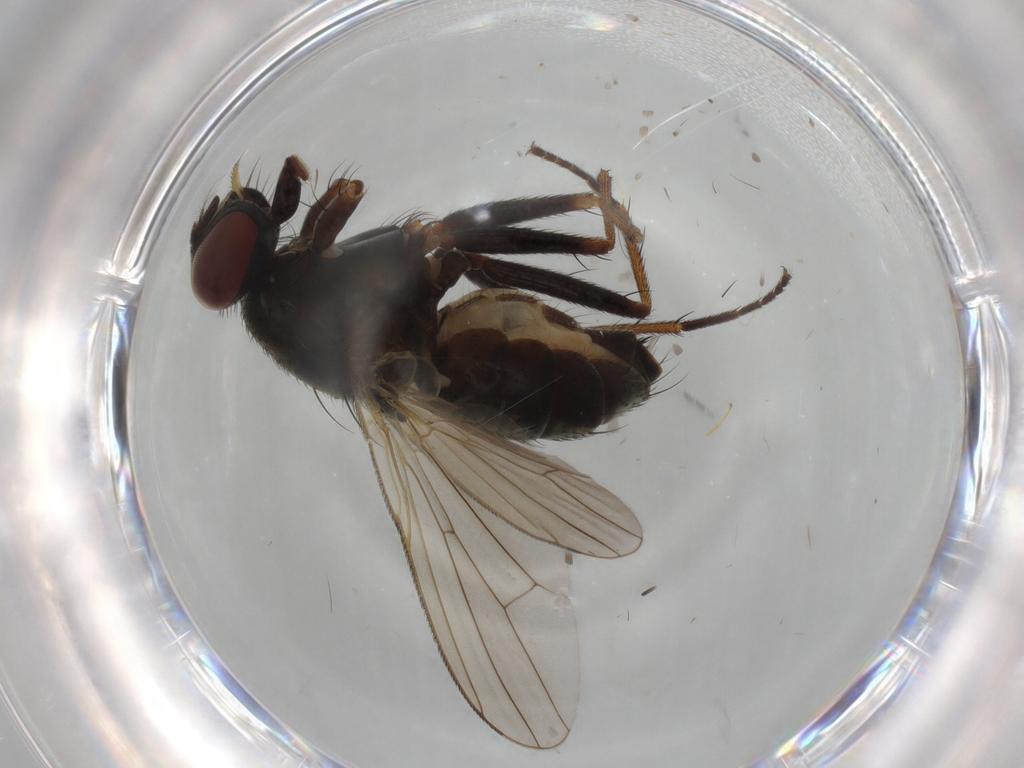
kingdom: Animalia
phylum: Arthropoda
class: Insecta
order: Diptera
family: Muscidae
